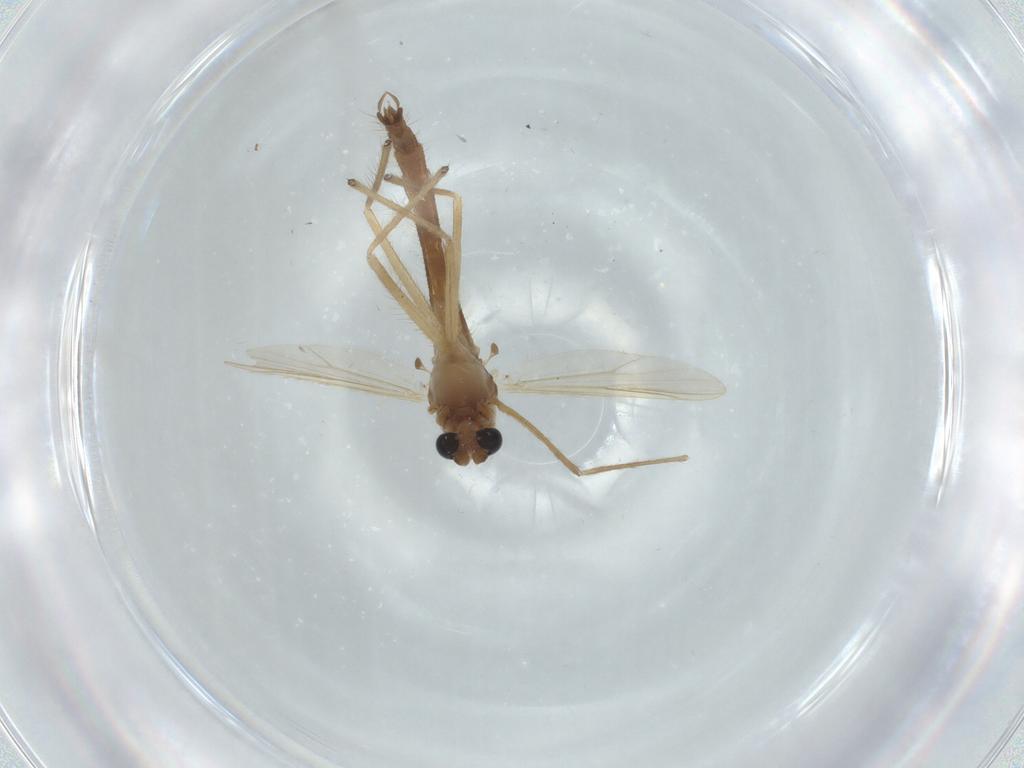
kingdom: Animalia
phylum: Arthropoda
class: Insecta
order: Diptera
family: Chironomidae
